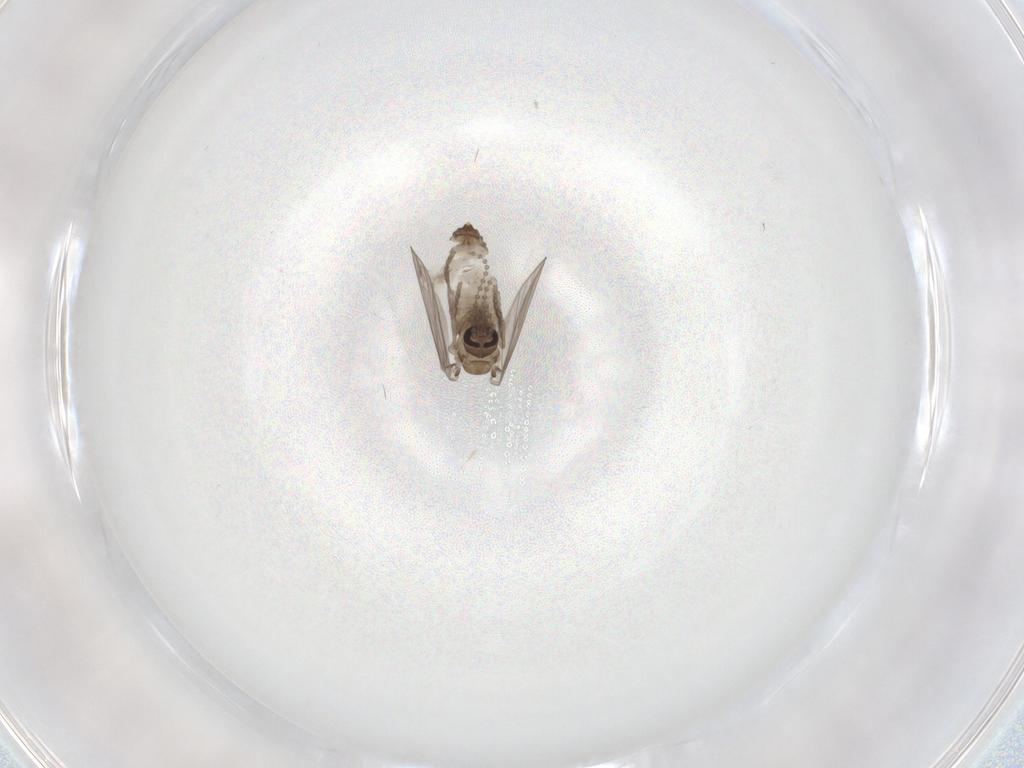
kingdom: Animalia
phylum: Arthropoda
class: Insecta
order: Diptera
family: Psychodidae
